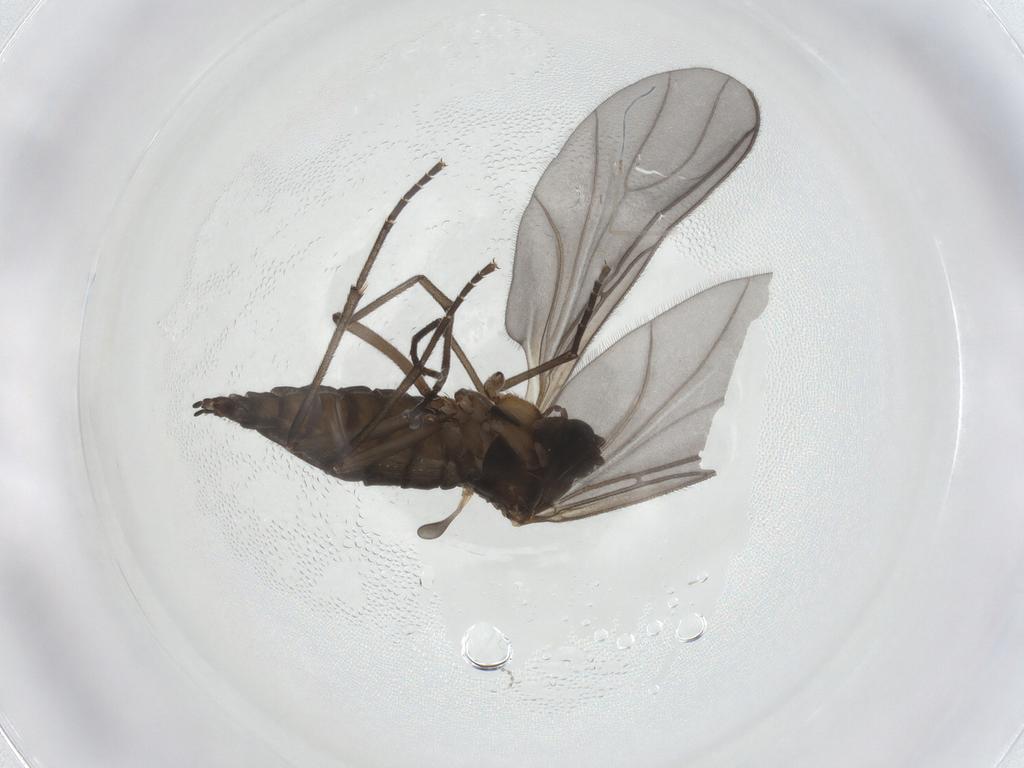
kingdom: Animalia
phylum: Arthropoda
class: Insecta
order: Diptera
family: Sciaridae
